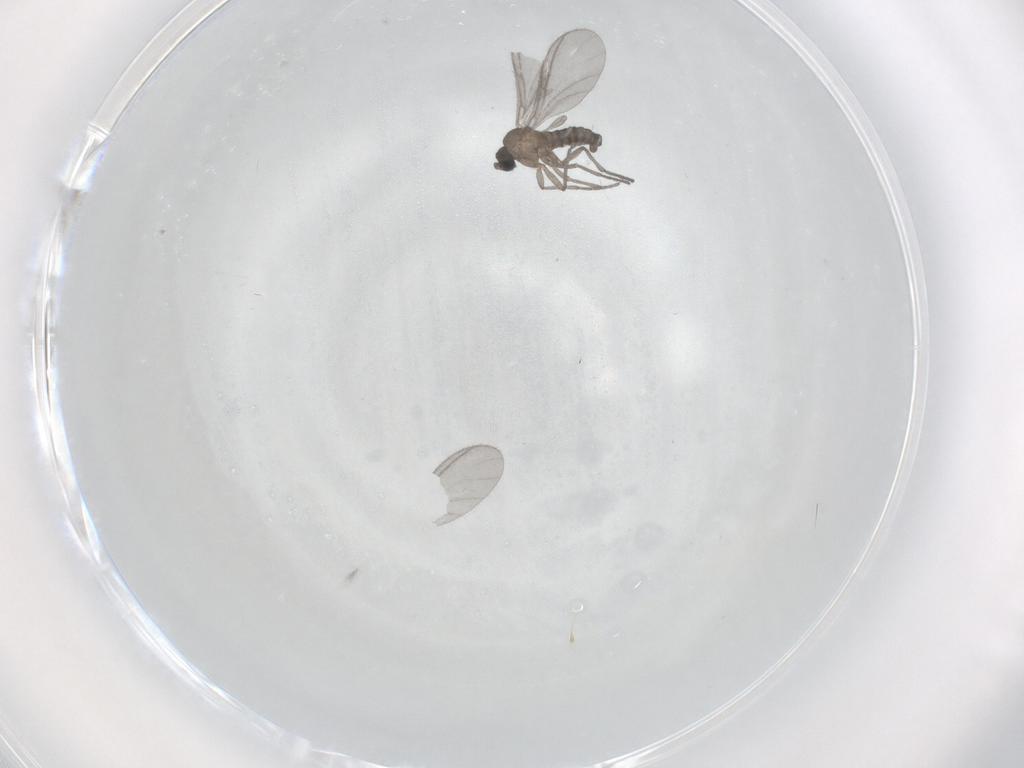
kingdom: Animalia
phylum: Arthropoda
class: Insecta
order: Diptera
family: Sciaridae
